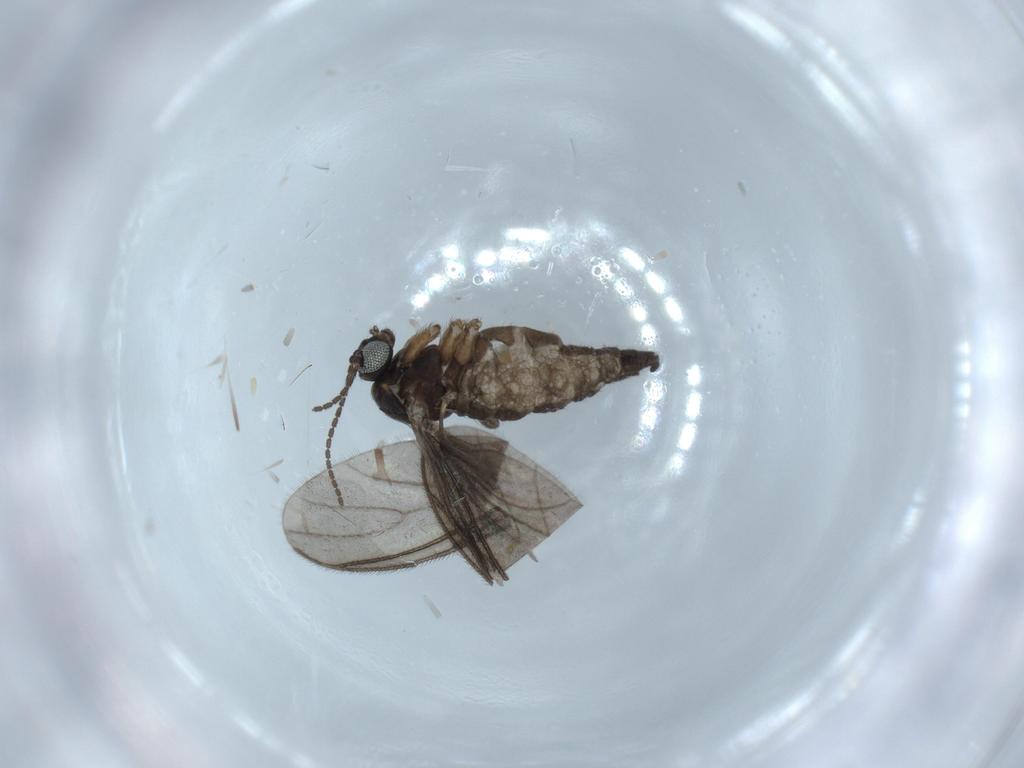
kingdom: Animalia
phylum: Arthropoda
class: Insecta
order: Diptera
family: Sciaridae
